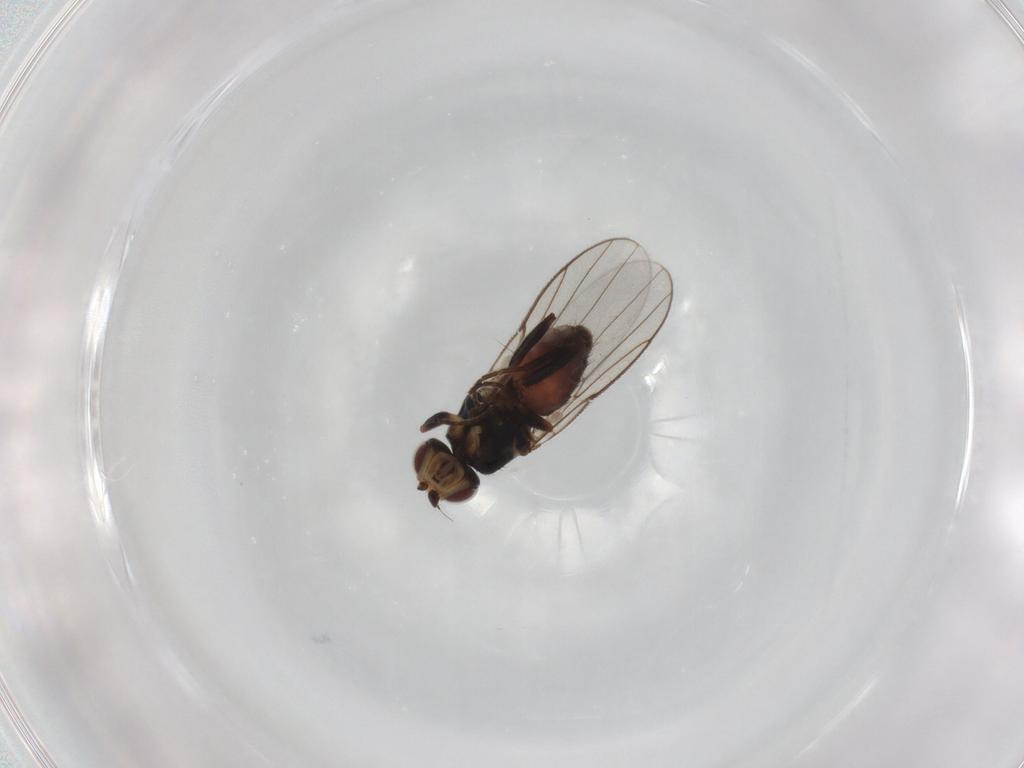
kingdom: Animalia
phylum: Arthropoda
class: Insecta
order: Diptera
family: Chloropidae
